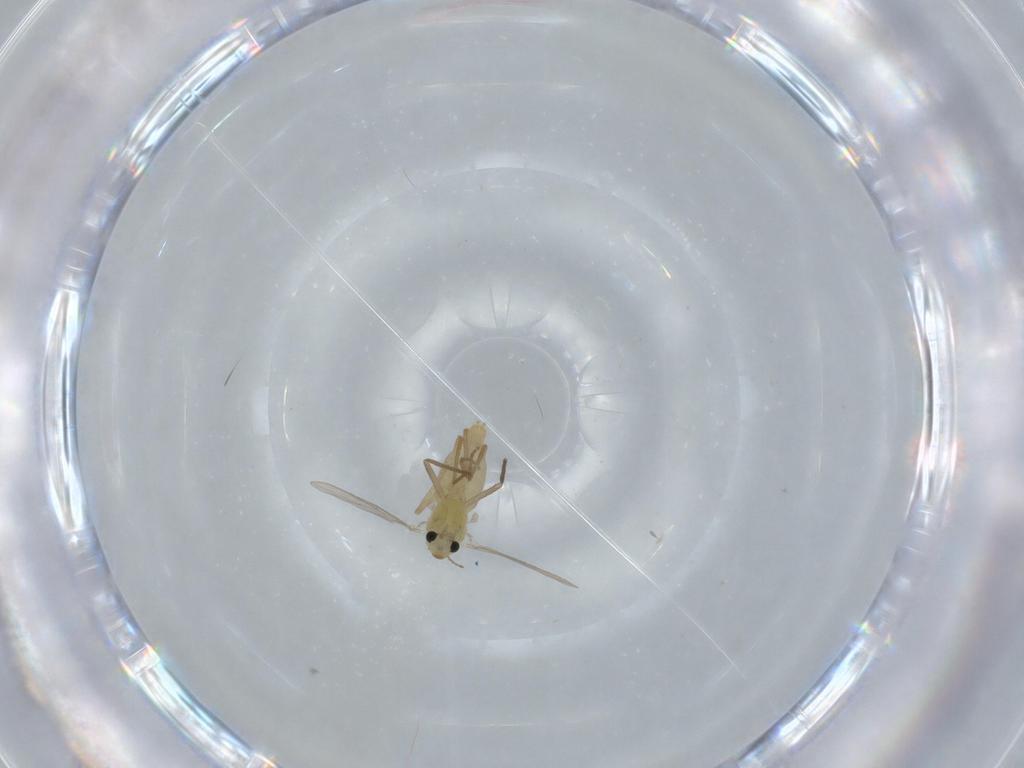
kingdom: Animalia
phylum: Arthropoda
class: Insecta
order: Diptera
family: Chironomidae
